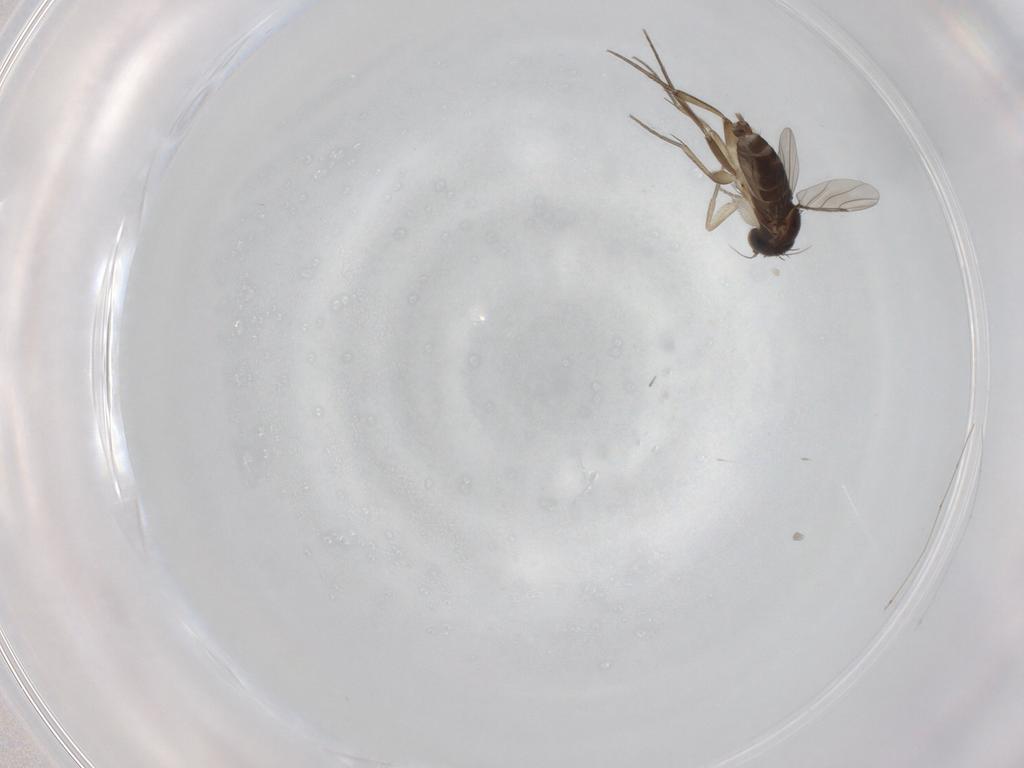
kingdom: Animalia
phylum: Arthropoda
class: Insecta
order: Diptera
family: Phoridae
